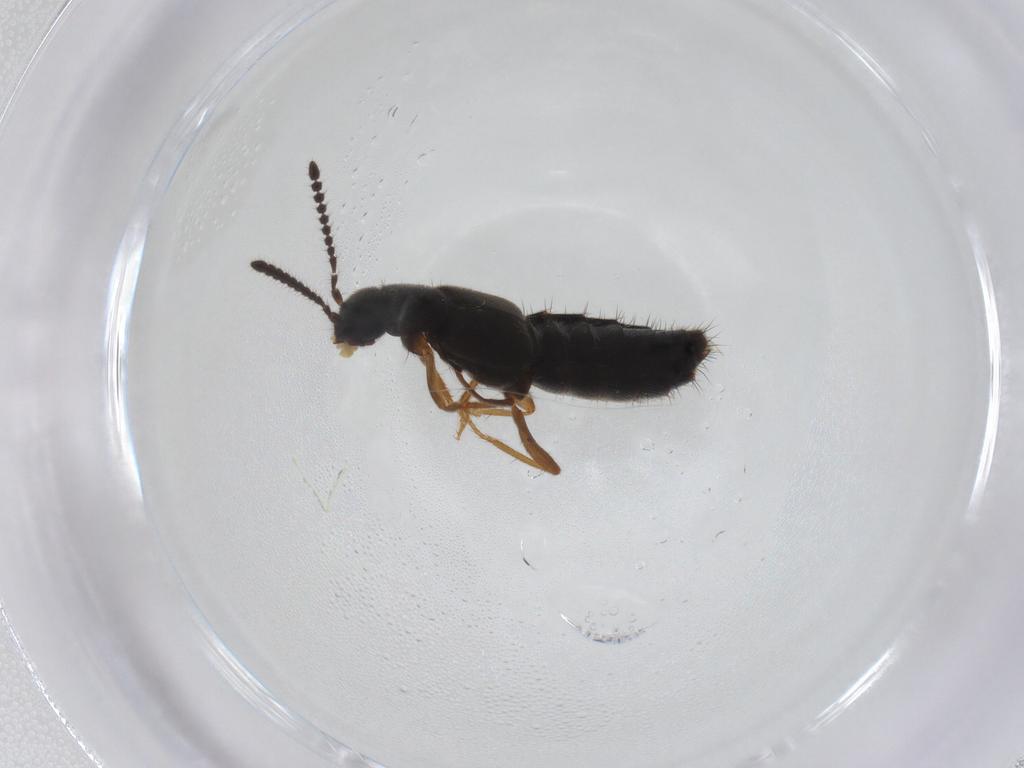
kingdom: Animalia
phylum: Arthropoda
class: Insecta
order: Coleoptera
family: Staphylinidae
